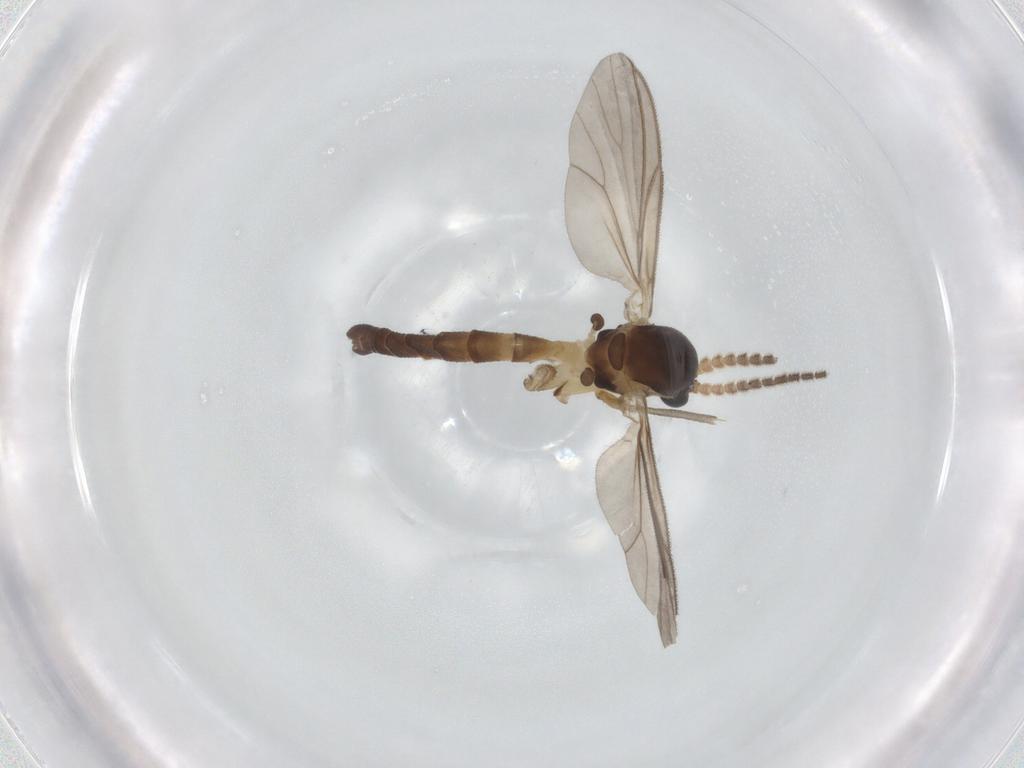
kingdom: Animalia
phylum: Arthropoda
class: Insecta
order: Diptera
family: Mycetophilidae
